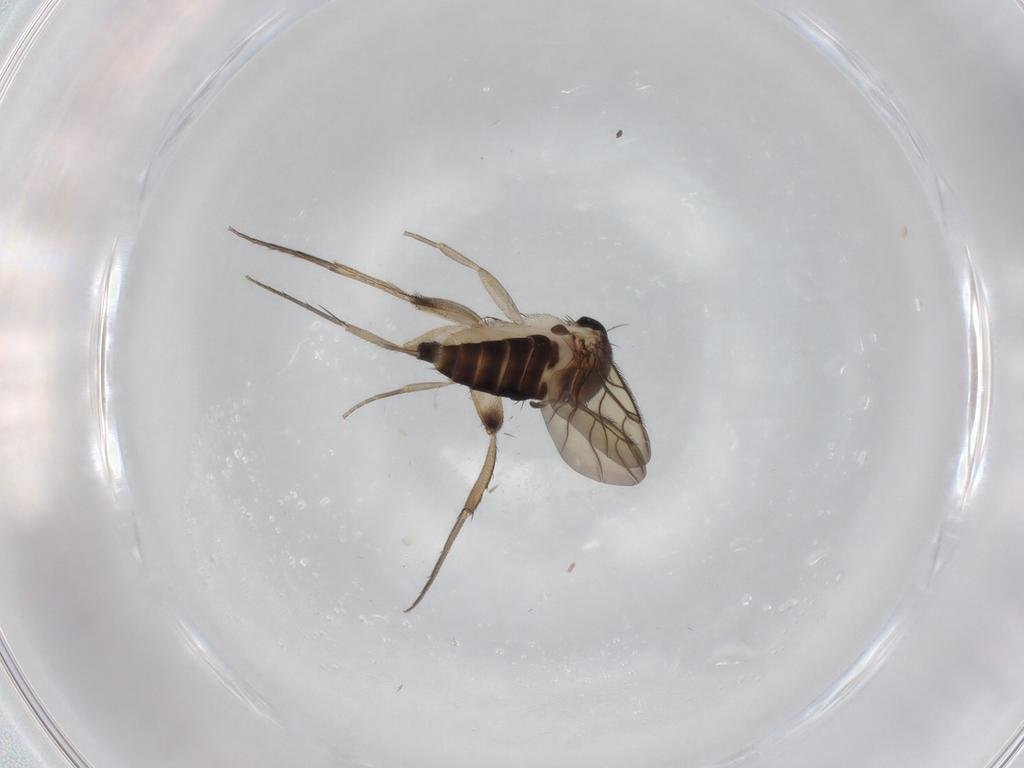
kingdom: Animalia
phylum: Arthropoda
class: Insecta
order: Diptera
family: Phoridae
